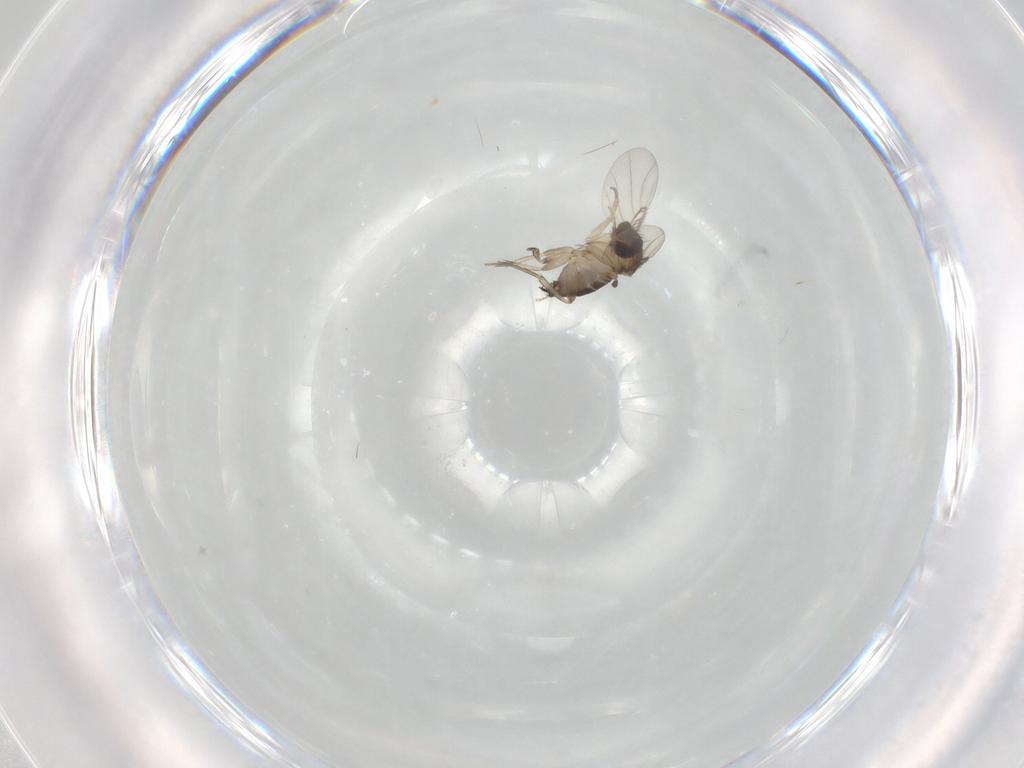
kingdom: Animalia
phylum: Arthropoda
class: Insecta
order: Diptera
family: Phoridae
